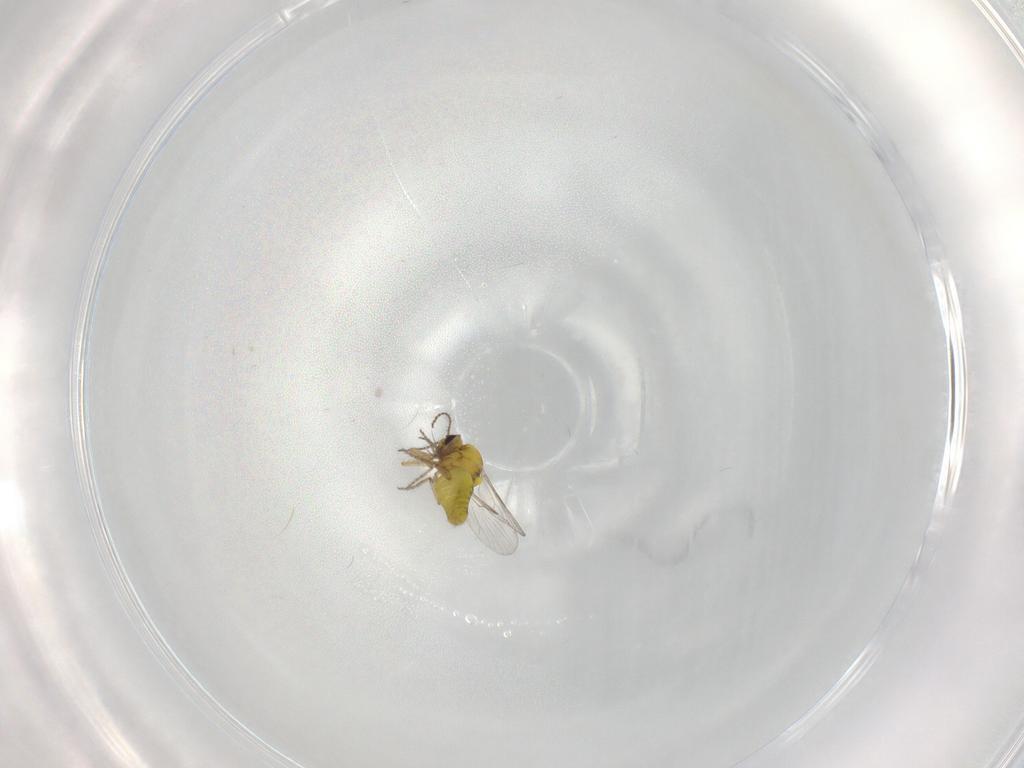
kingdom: Animalia
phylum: Arthropoda
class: Insecta
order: Diptera
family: Ceratopogonidae
